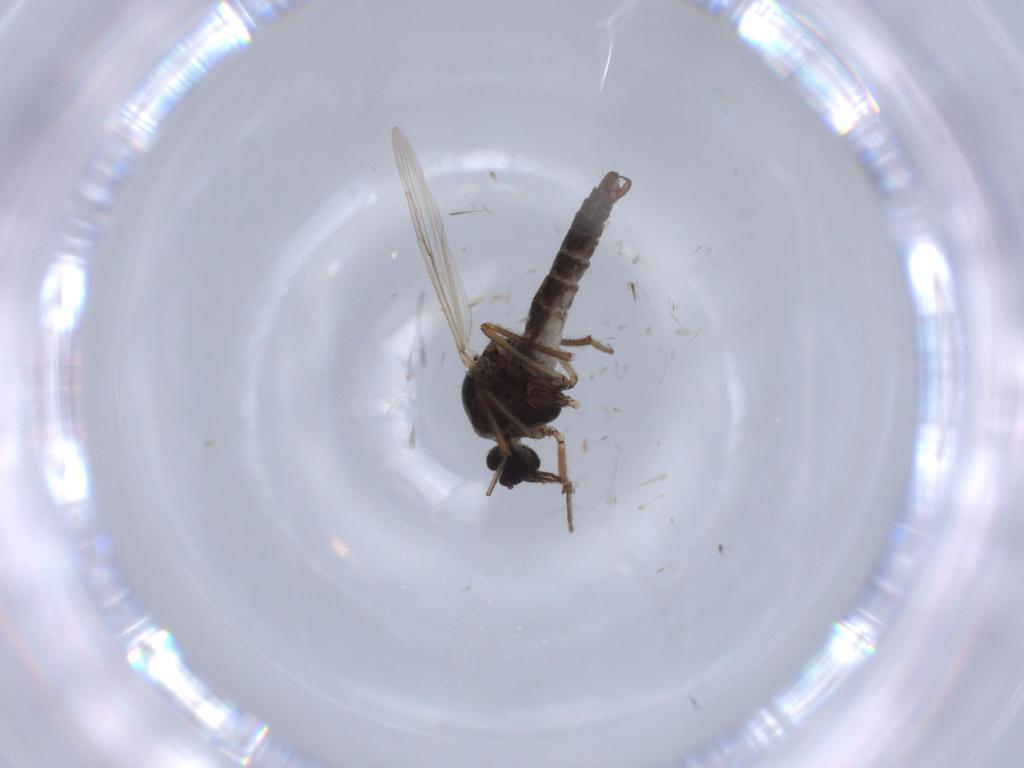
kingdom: Animalia
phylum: Arthropoda
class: Insecta
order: Diptera
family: Ceratopogonidae
